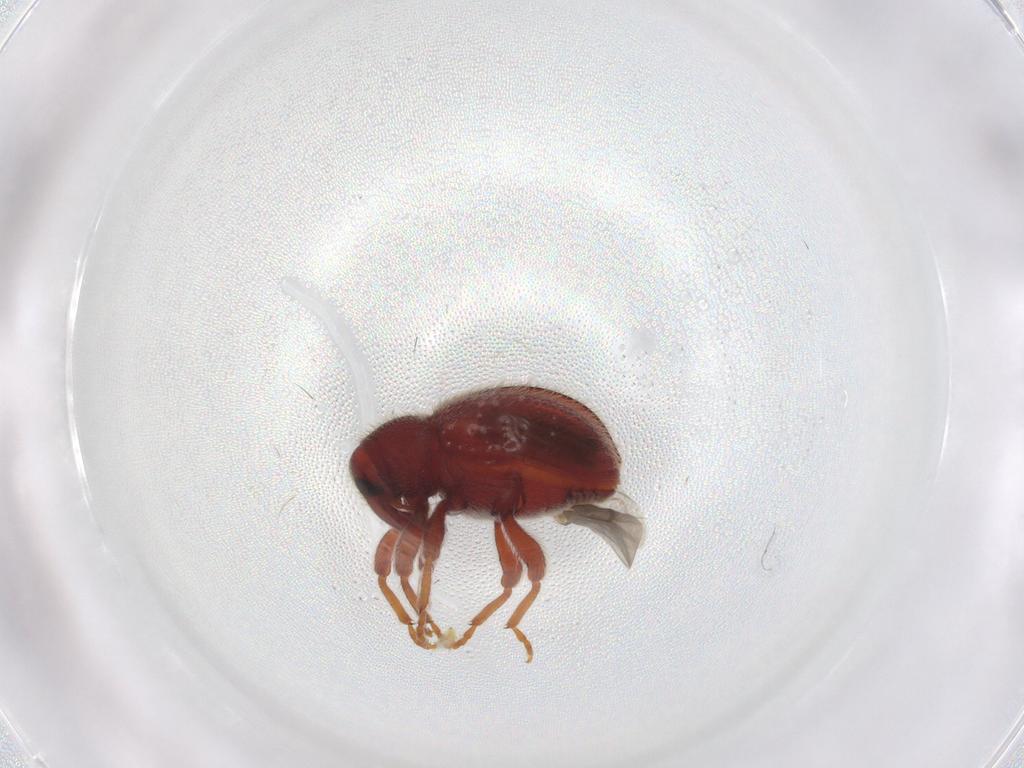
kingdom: Animalia
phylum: Arthropoda
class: Insecta
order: Coleoptera
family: Curculionidae
